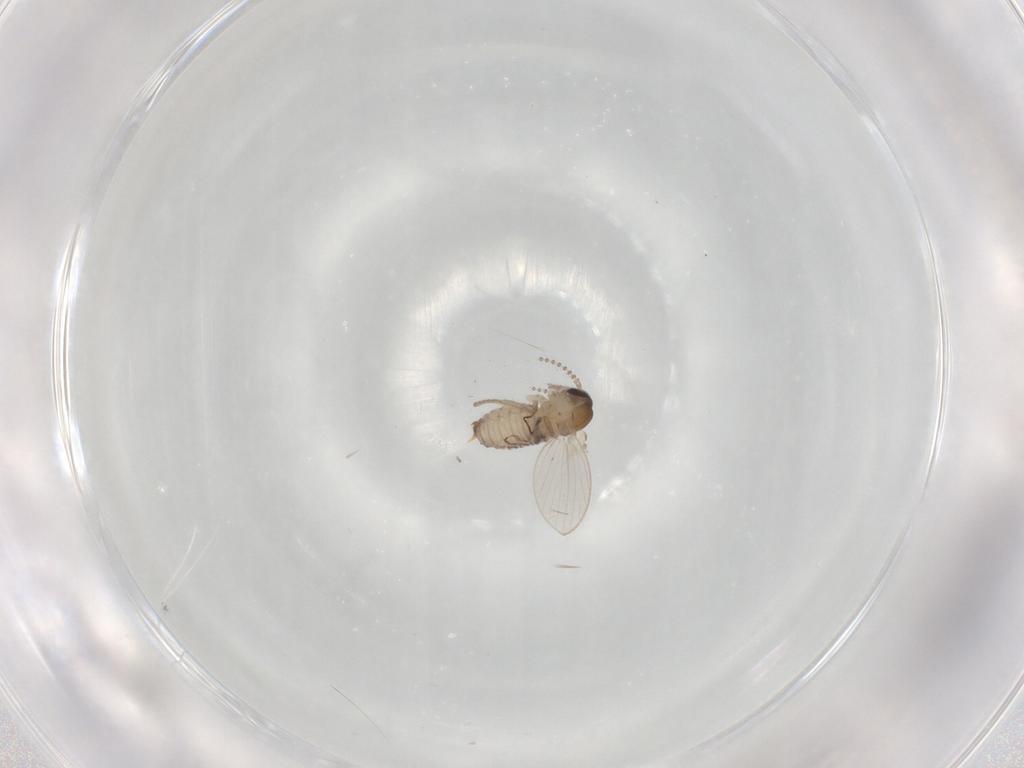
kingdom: Animalia
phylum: Arthropoda
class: Insecta
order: Diptera
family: Psychodidae
